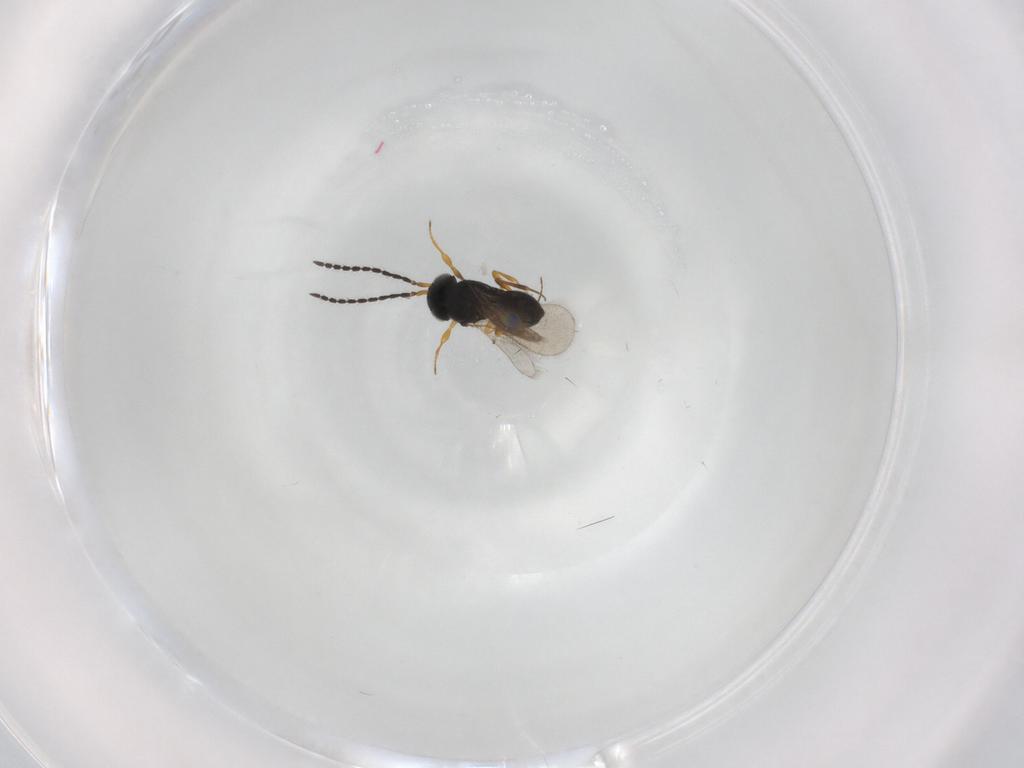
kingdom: Animalia
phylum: Arthropoda
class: Insecta
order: Hymenoptera
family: Scelionidae
